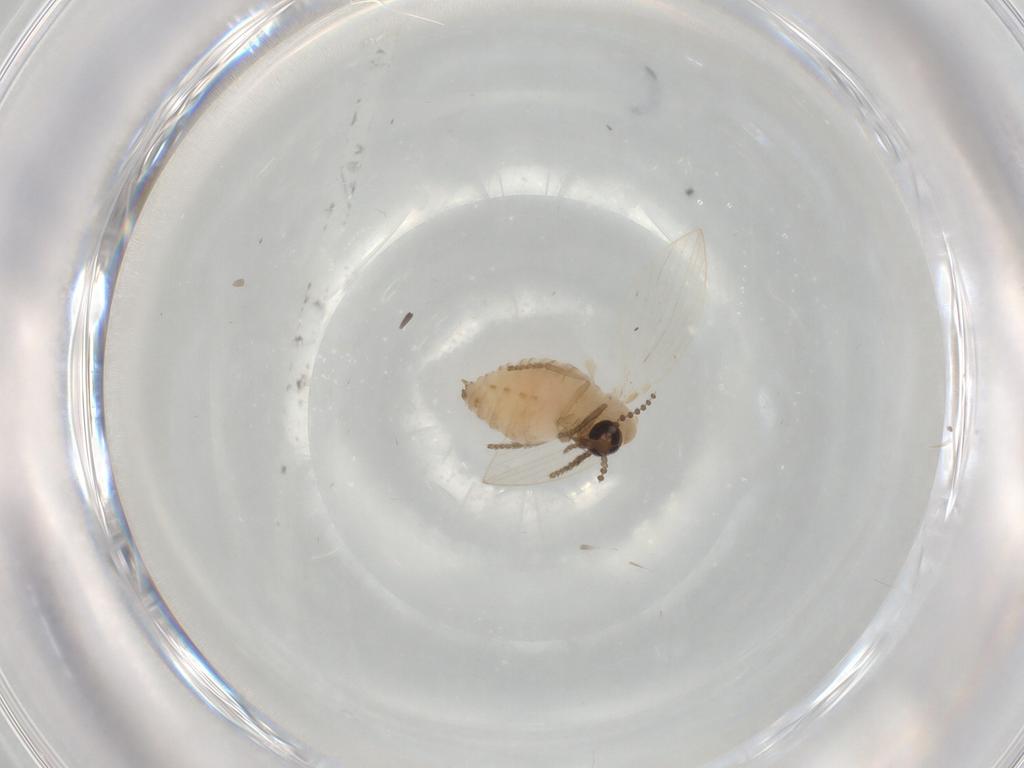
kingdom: Animalia
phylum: Arthropoda
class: Insecta
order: Diptera
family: Psychodidae
